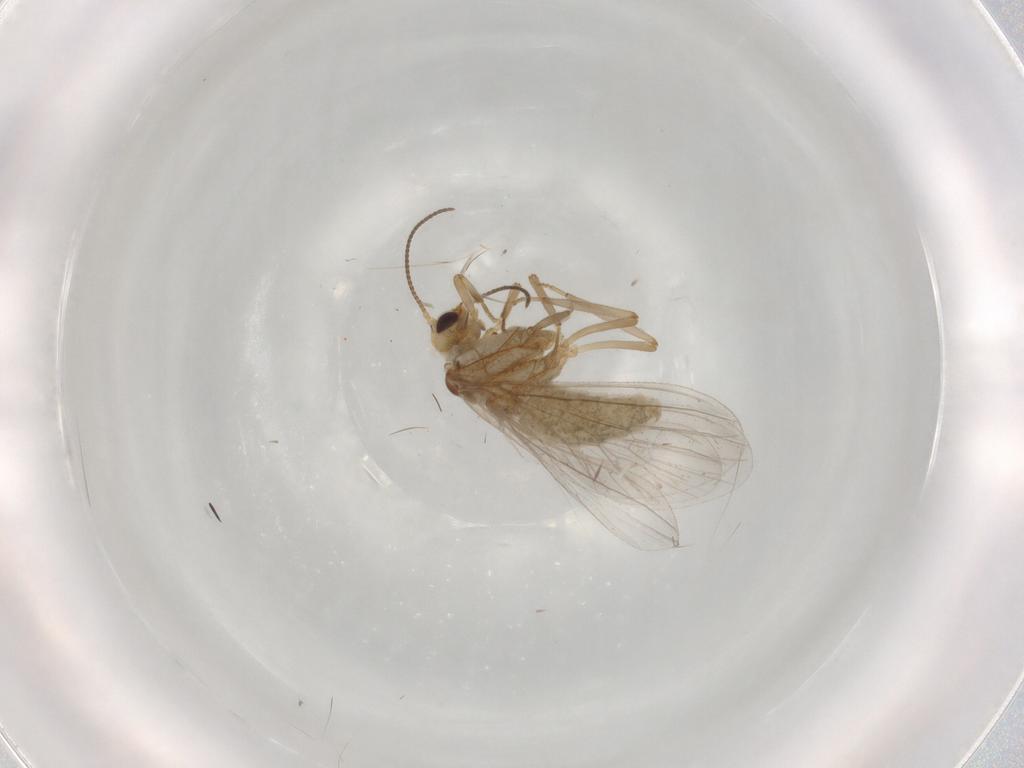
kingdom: Animalia
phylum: Arthropoda
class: Insecta
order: Neuroptera
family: Coniopterygidae
